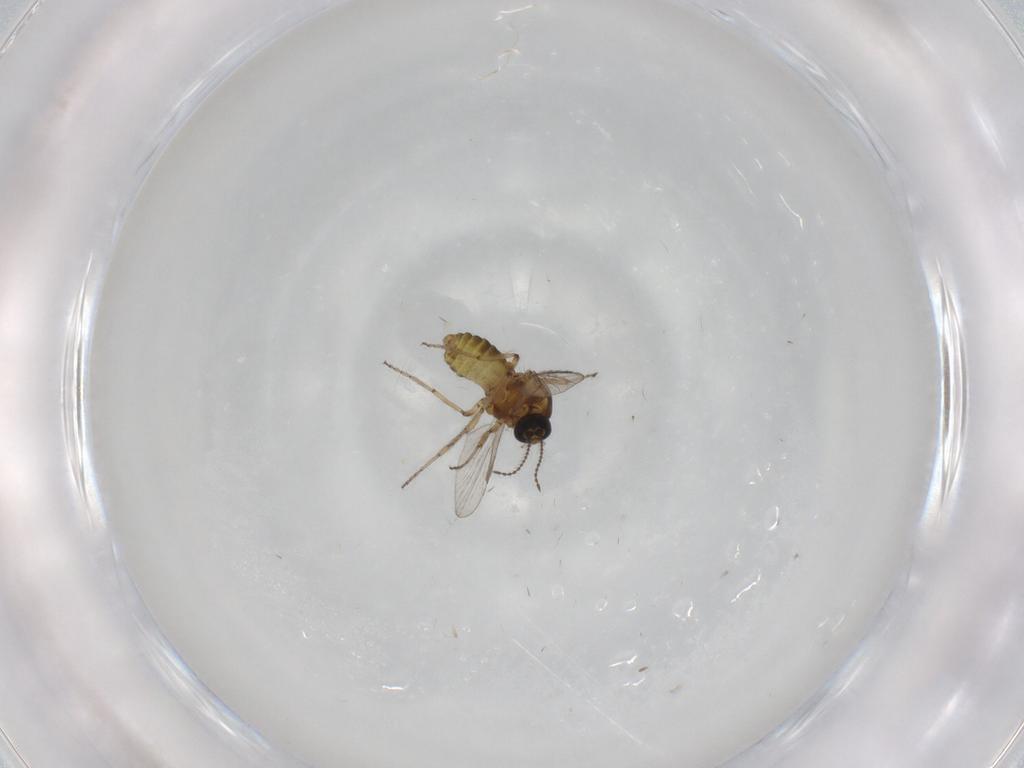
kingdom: Animalia
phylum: Arthropoda
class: Insecta
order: Diptera
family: Ceratopogonidae
